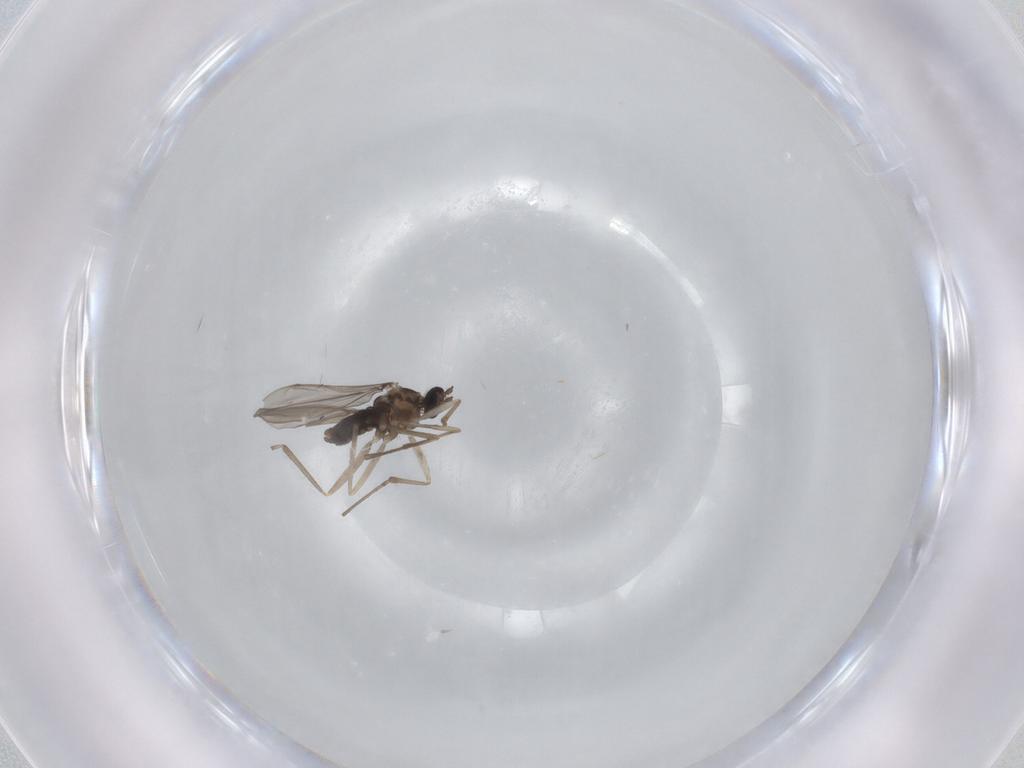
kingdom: Animalia
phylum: Arthropoda
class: Insecta
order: Diptera
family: Cecidomyiidae
